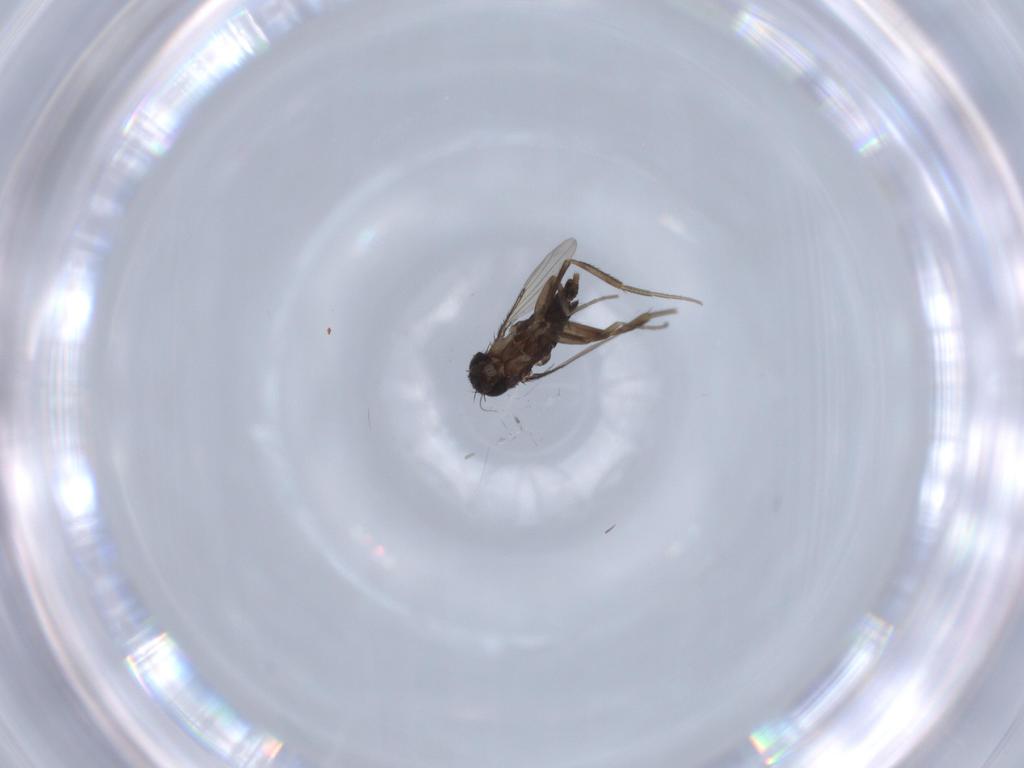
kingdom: Animalia
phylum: Arthropoda
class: Insecta
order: Diptera
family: Phoridae
